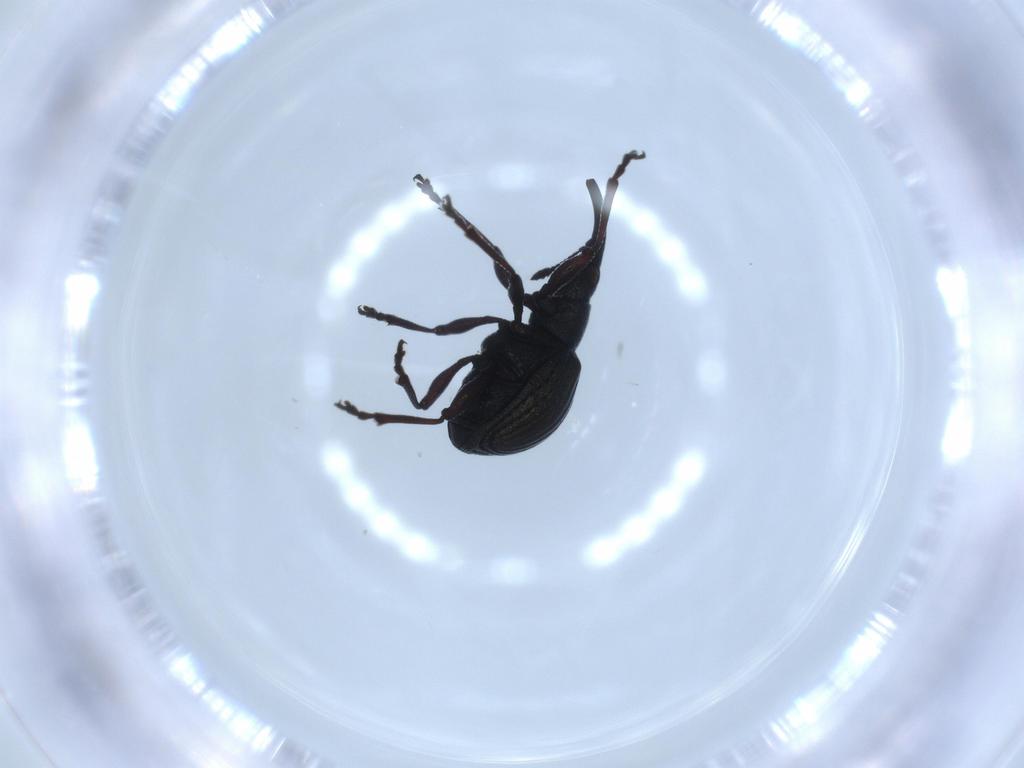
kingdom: Animalia
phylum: Arthropoda
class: Insecta
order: Coleoptera
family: Brentidae
